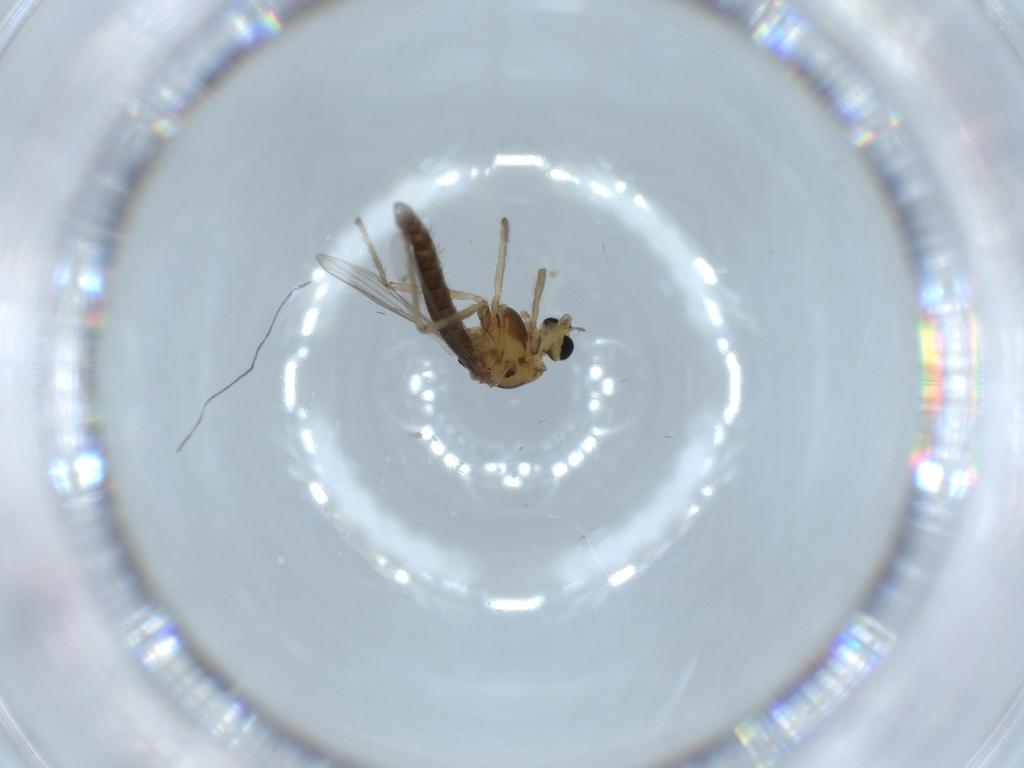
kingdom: Animalia
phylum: Arthropoda
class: Insecta
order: Diptera
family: Chironomidae
